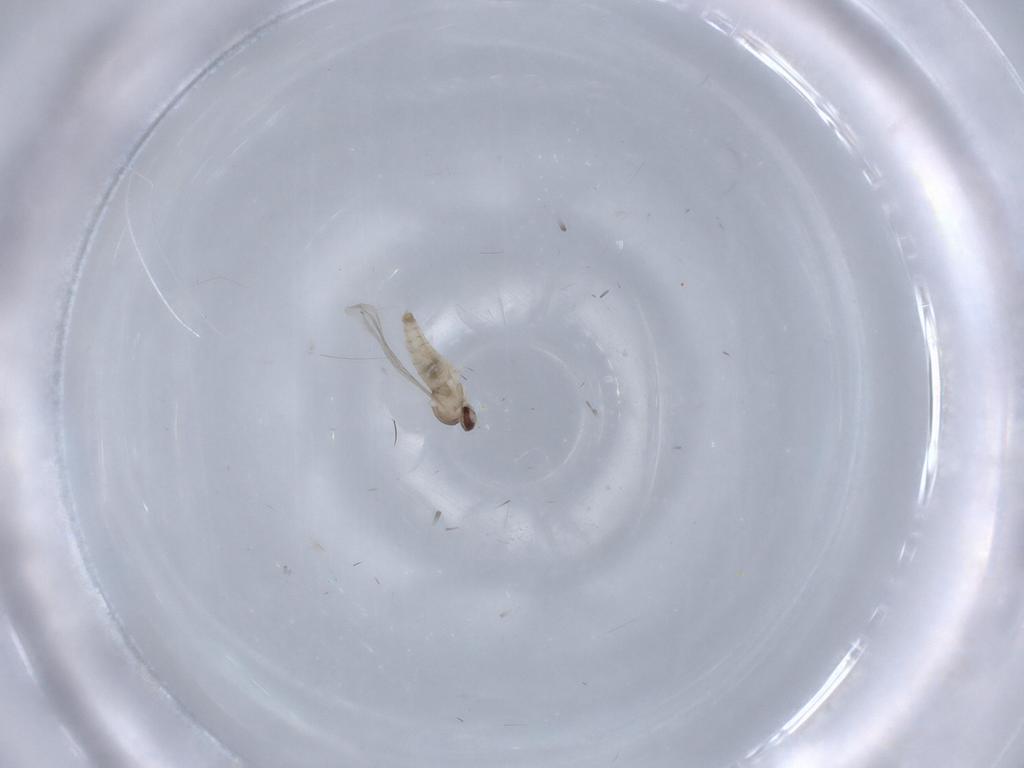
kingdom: Animalia
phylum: Arthropoda
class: Insecta
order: Diptera
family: Cecidomyiidae
